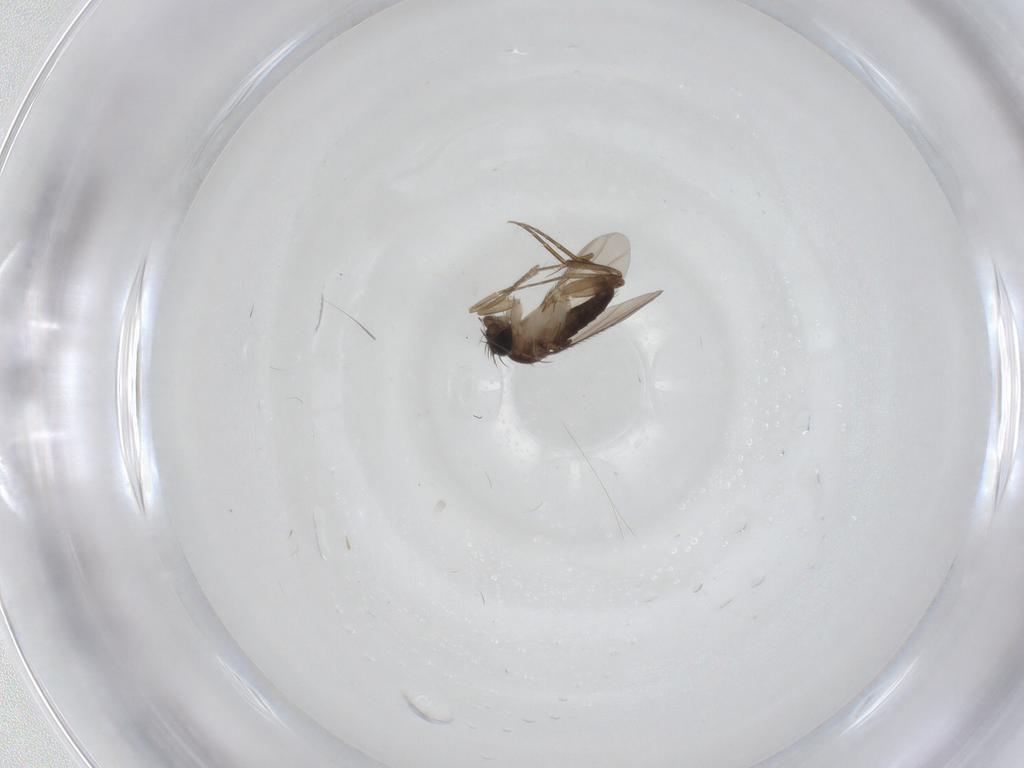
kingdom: Animalia
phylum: Arthropoda
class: Insecta
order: Diptera
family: Phoridae
